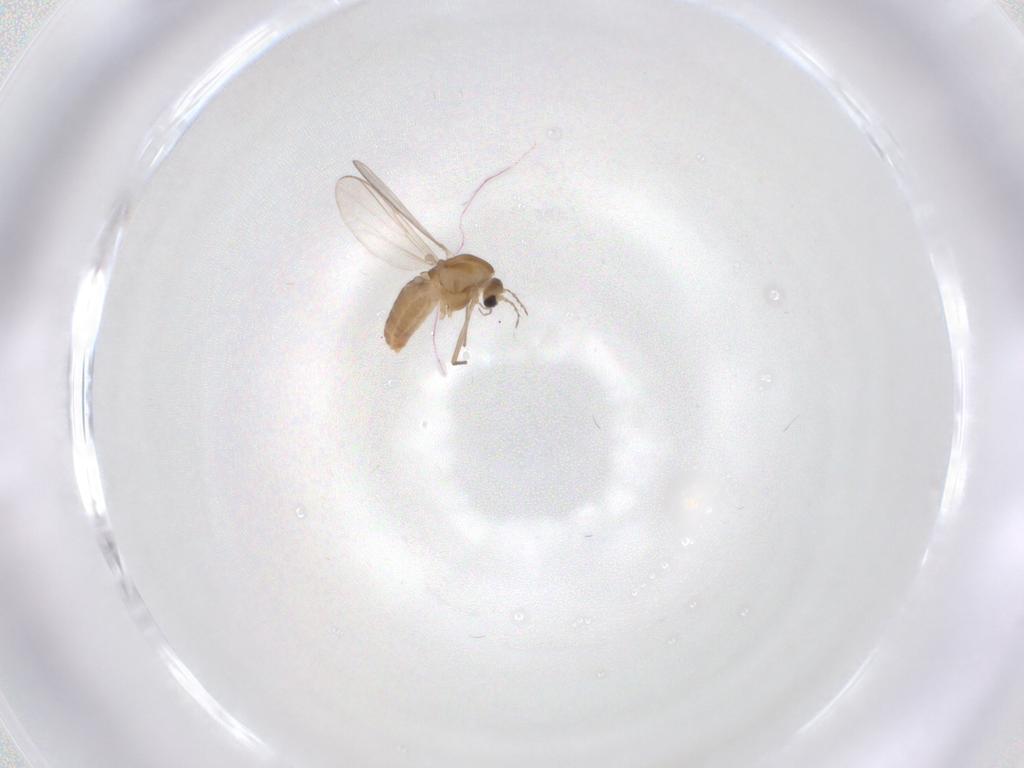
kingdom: Animalia
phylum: Arthropoda
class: Insecta
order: Diptera
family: Chironomidae
